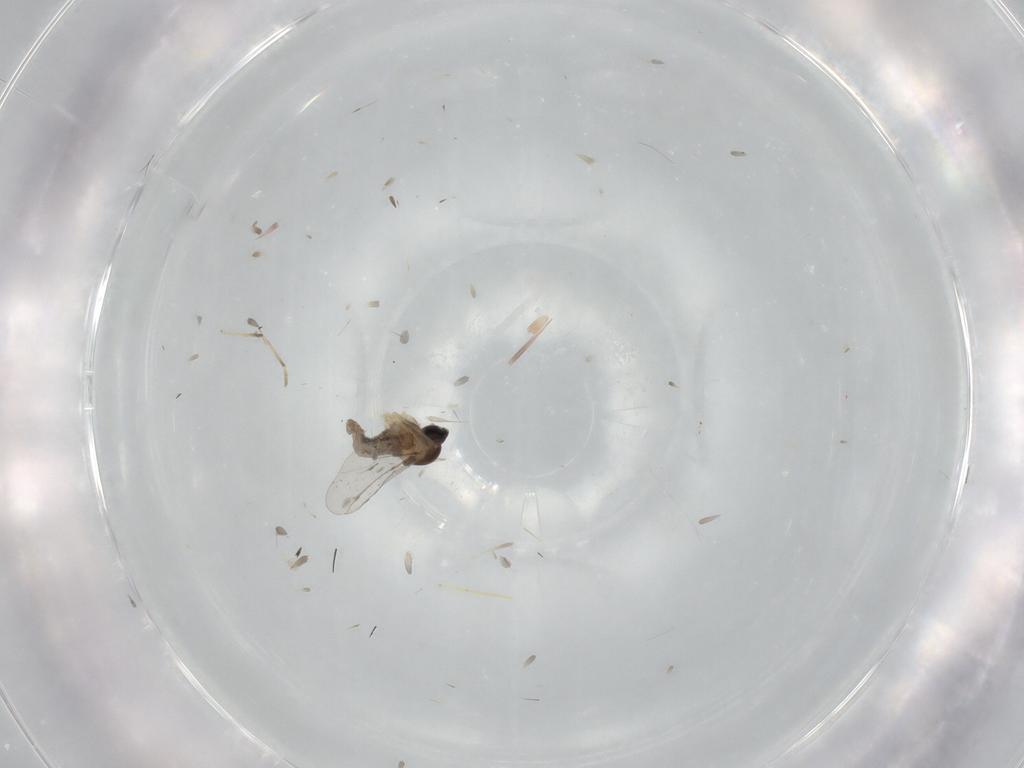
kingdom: Animalia
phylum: Arthropoda
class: Insecta
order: Diptera
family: Cecidomyiidae
